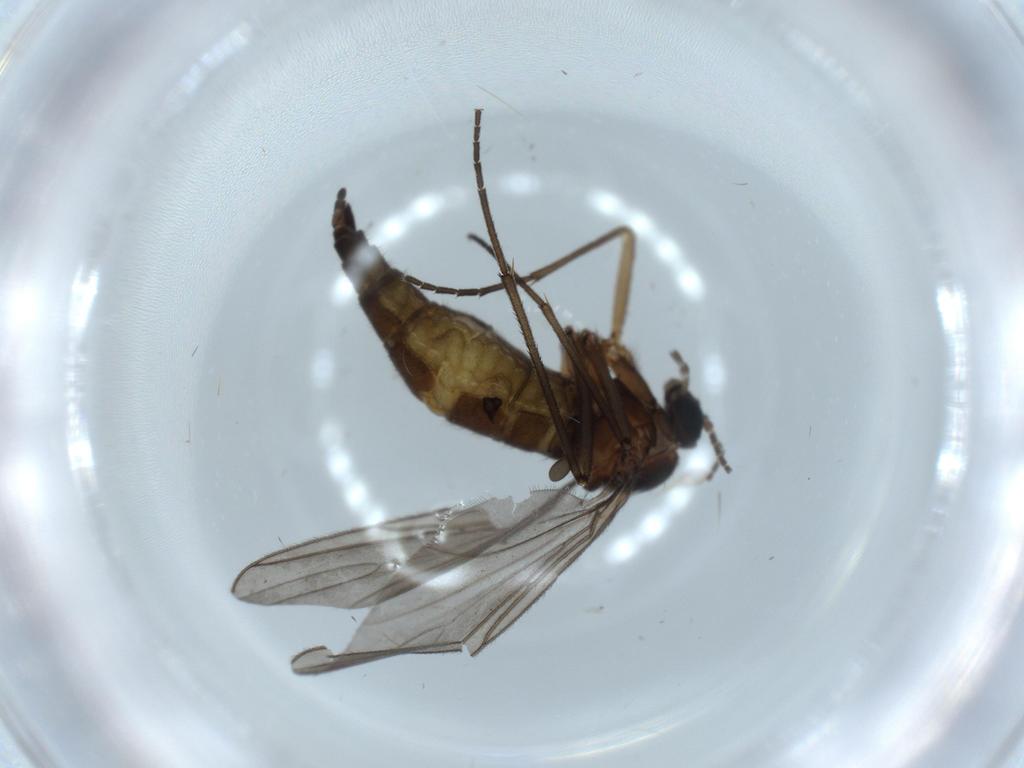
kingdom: Animalia
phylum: Arthropoda
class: Insecta
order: Diptera
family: Sciaridae
